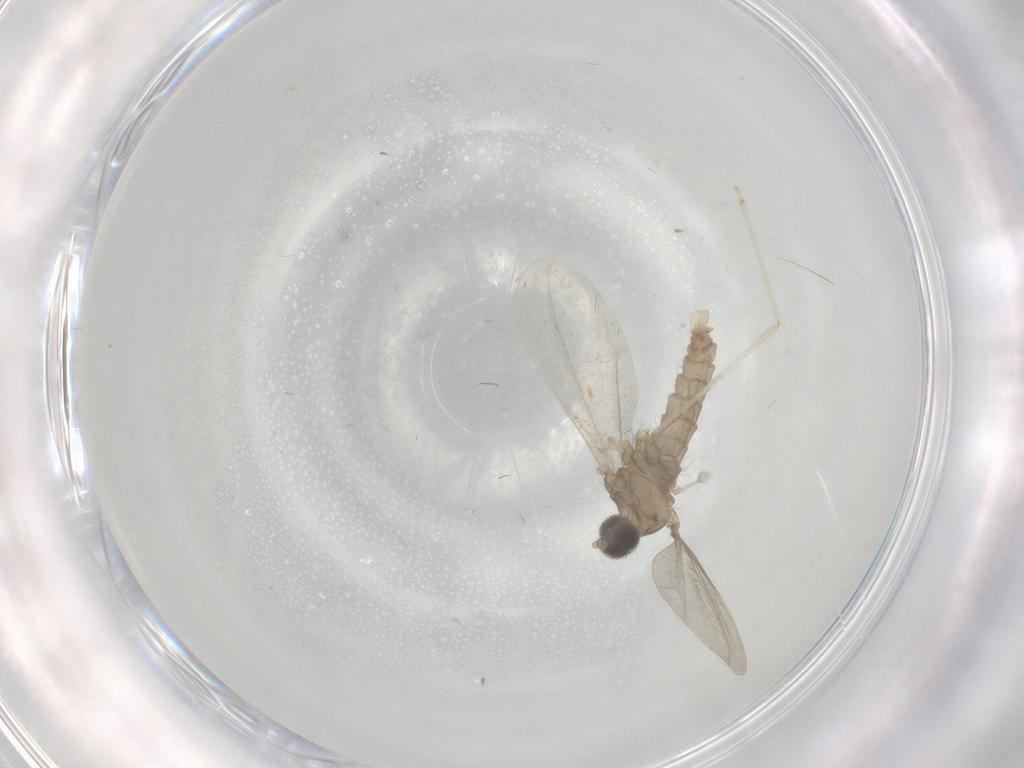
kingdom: Animalia
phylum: Arthropoda
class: Insecta
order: Diptera
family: Cecidomyiidae
